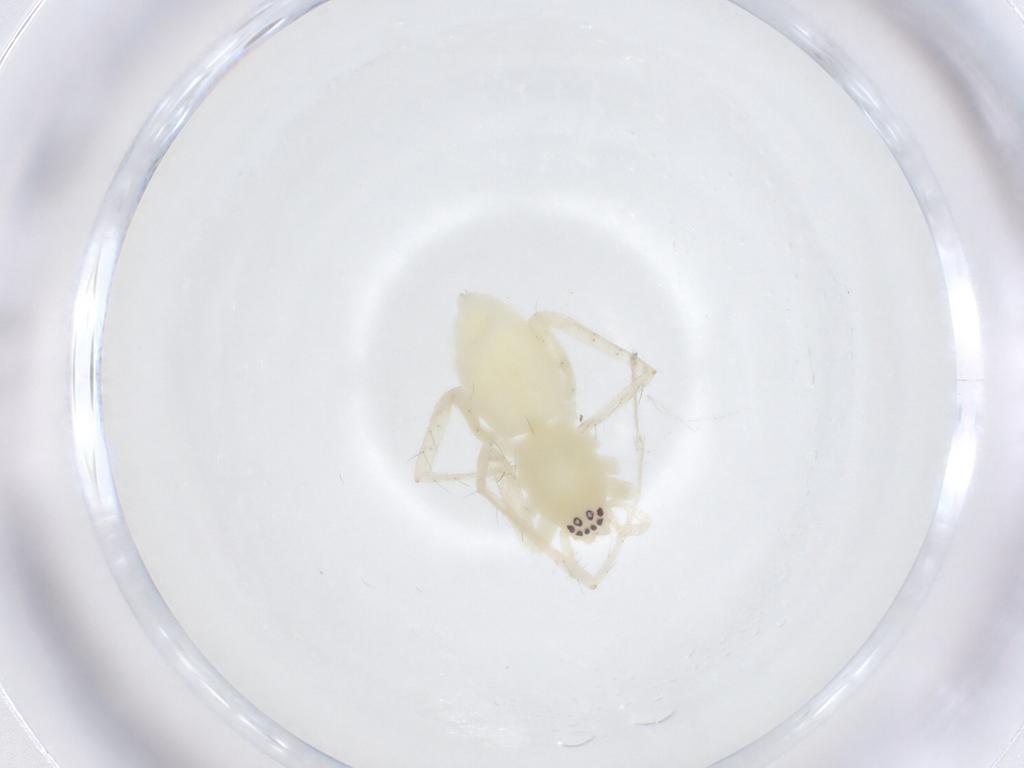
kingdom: Animalia
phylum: Arthropoda
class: Arachnida
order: Araneae
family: Anyphaenidae
